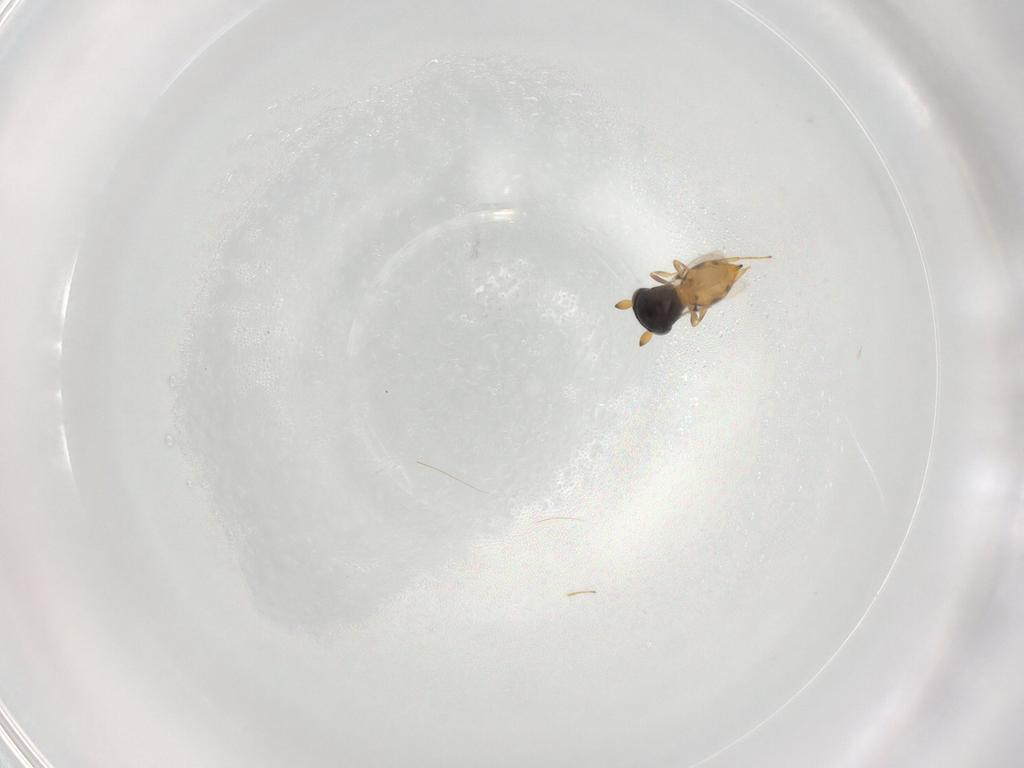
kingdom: Animalia
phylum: Arthropoda
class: Insecta
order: Hymenoptera
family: Scelionidae
